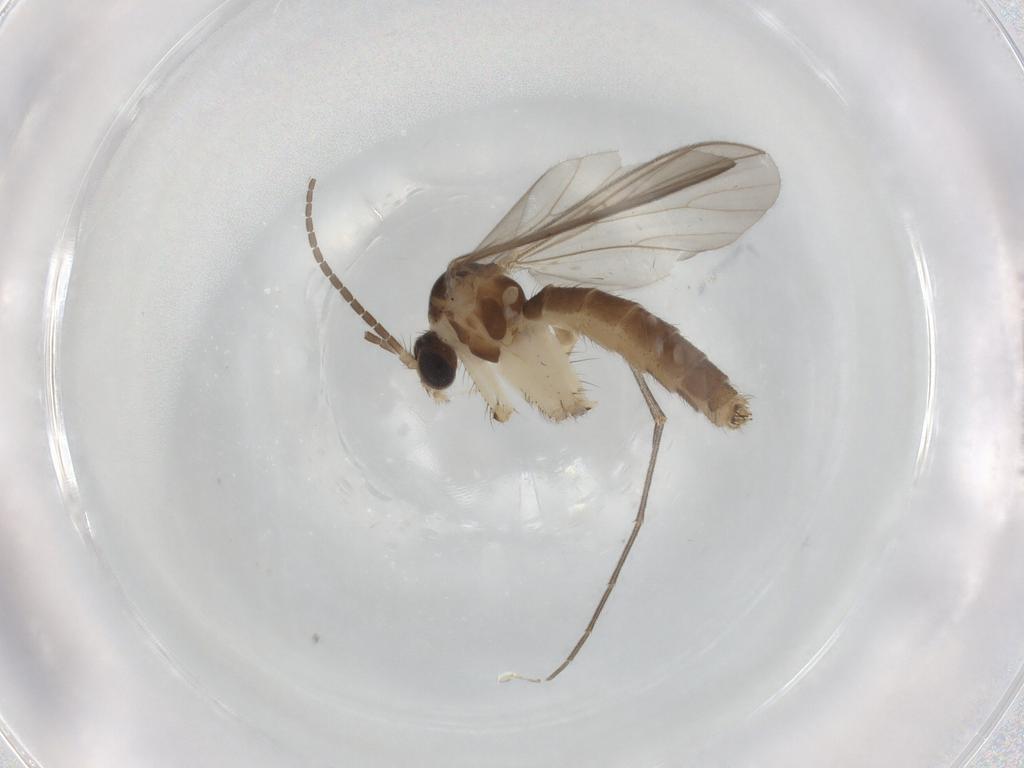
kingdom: Animalia
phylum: Arthropoda
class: Insecta
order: Diptera
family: Mycetophilidae
